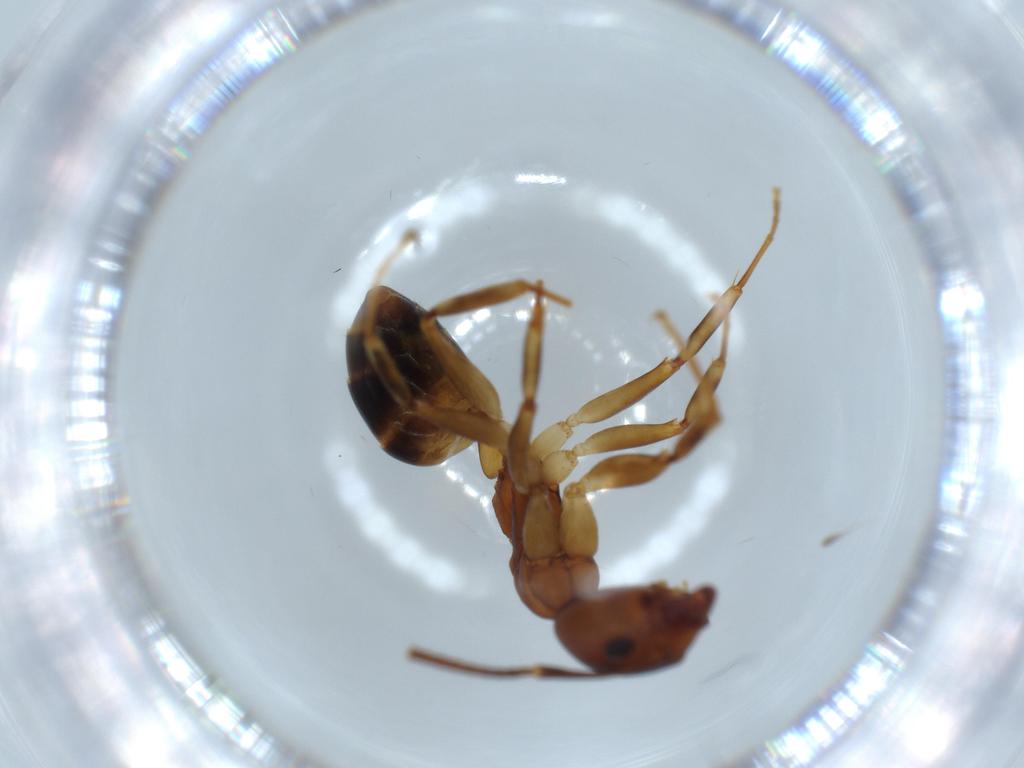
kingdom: Animalia
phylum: Arthropoda
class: Insecta
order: Hymenoptera
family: Formicidae
